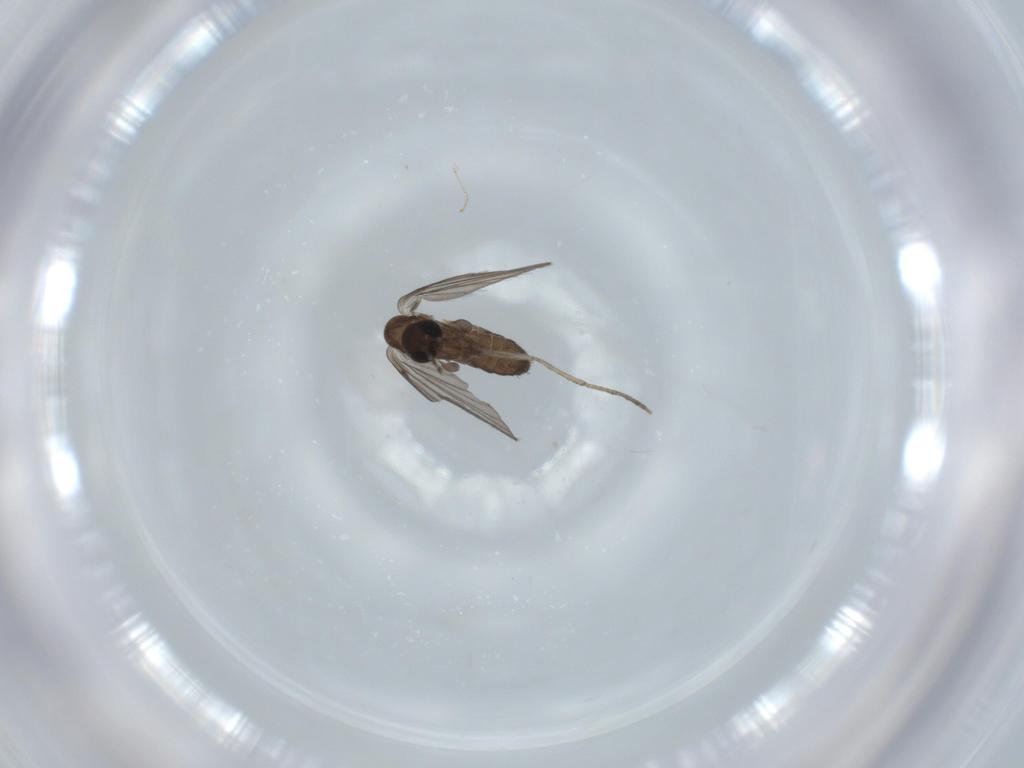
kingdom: Animalia
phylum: Arthropoda
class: Insecta
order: Diptera
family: Psychodidae
